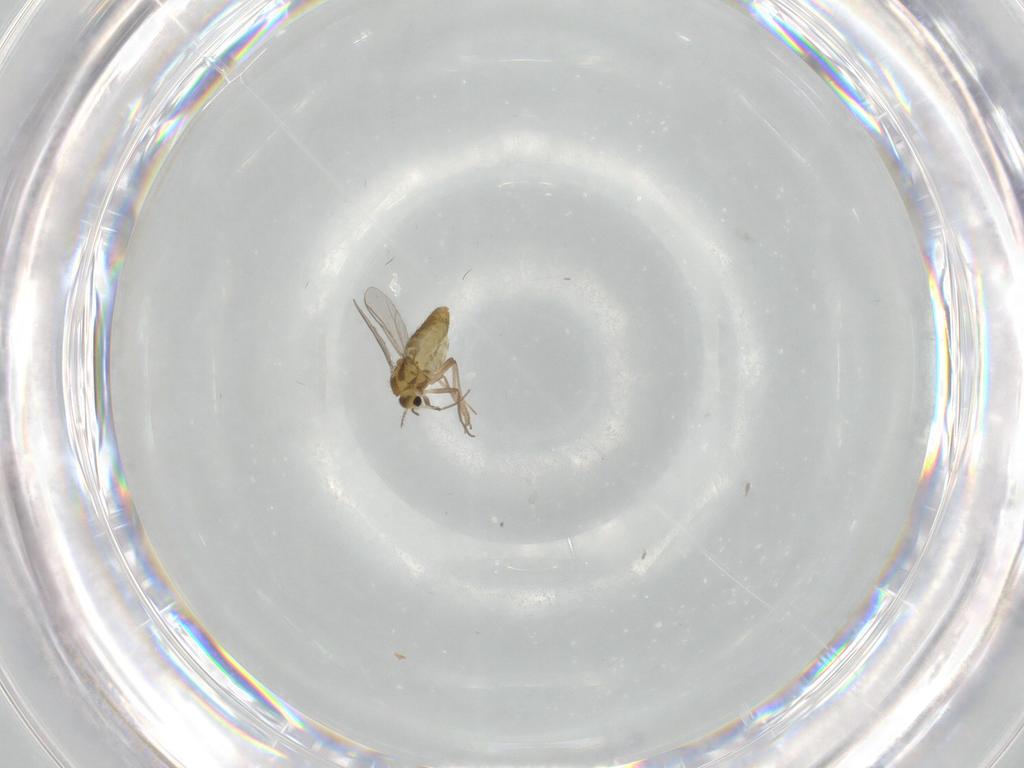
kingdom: Animalia
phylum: Arthropoda
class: Insecta
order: Diptera
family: Chironomidae
